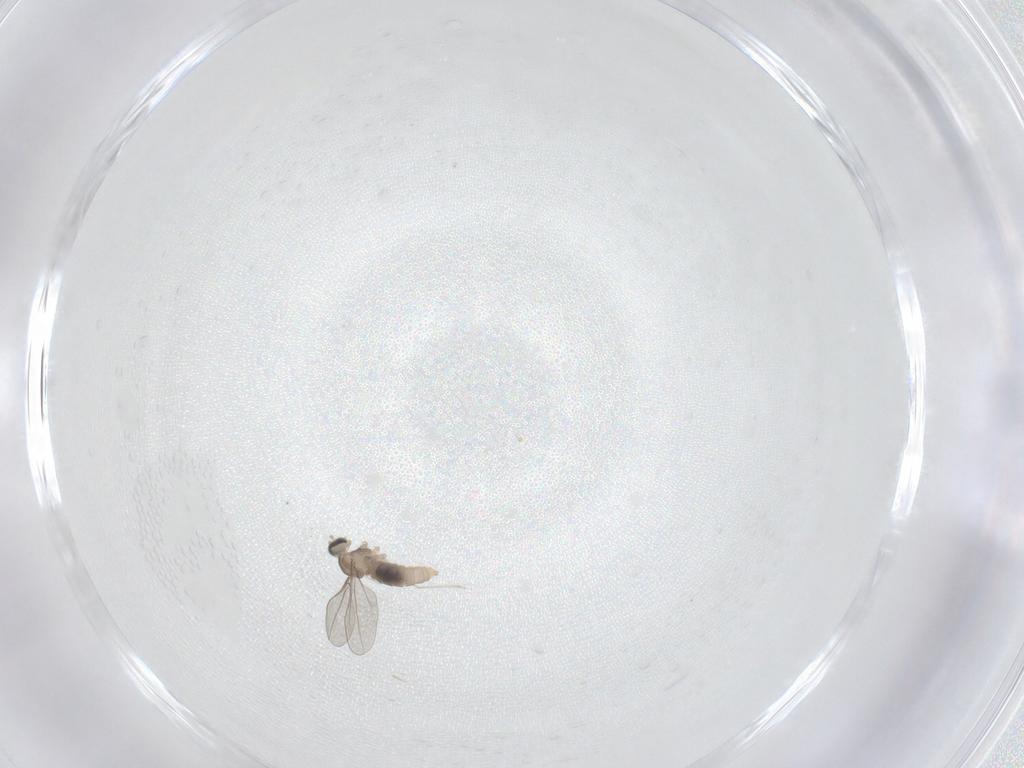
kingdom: Animalia
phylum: Arthropoda
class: Insecta
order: Diptera
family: Cecidomyiidae
